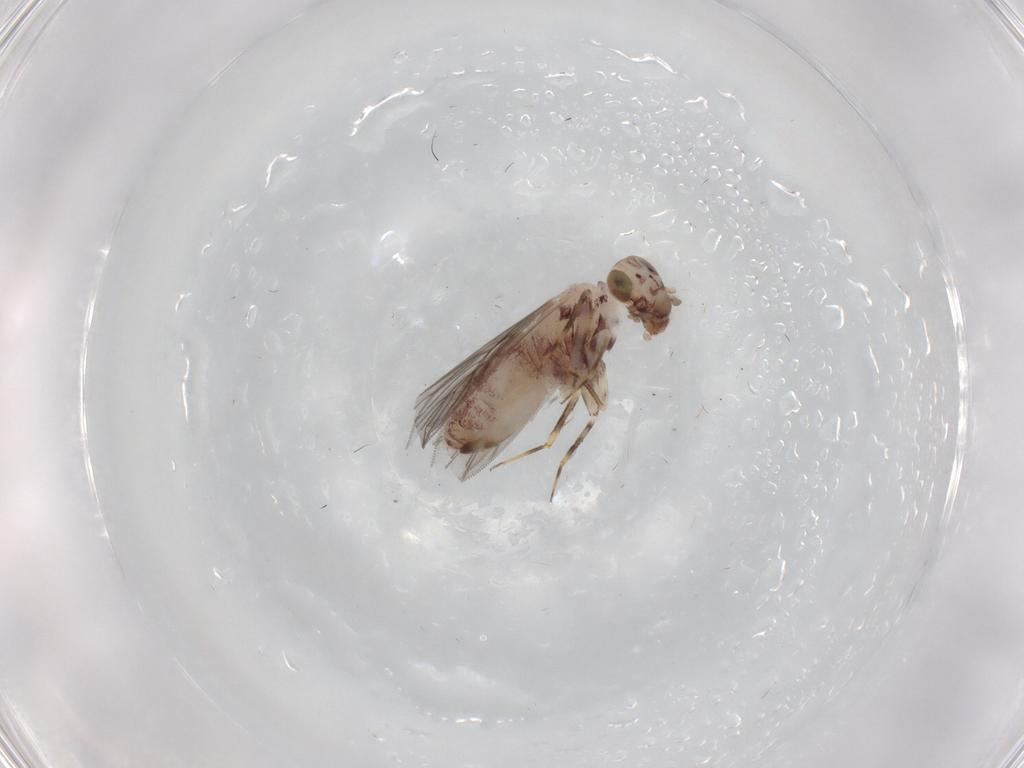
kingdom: Animalia
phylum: Arthropoda
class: Insecta
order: Psocodea
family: Lepidopsocidae
